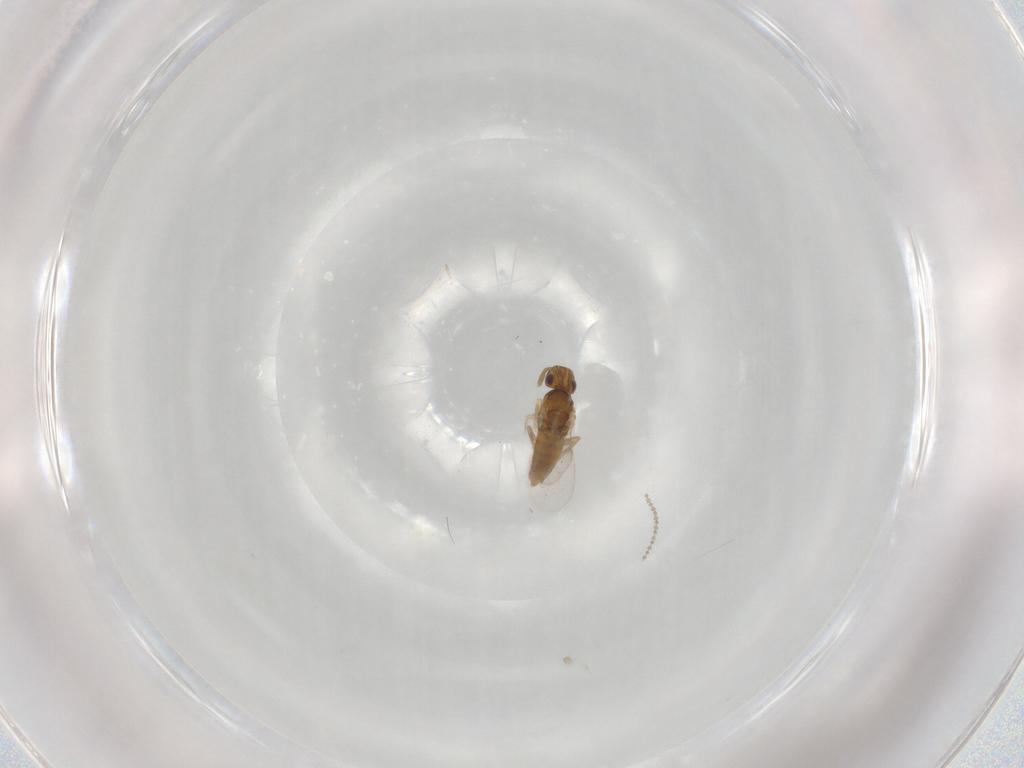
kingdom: Animalia
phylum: Arthropoda
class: Insecta
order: Hymenoptera
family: Encyrtidae
